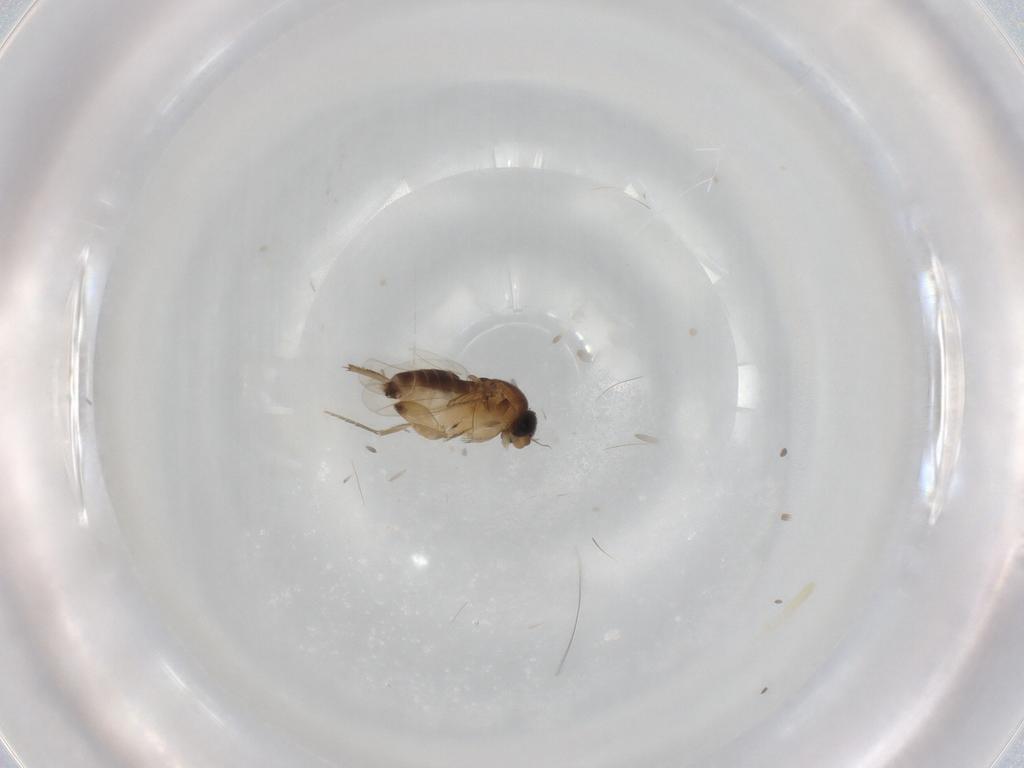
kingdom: Animalia
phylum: Arthropoda
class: Insecta
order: Diptera
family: Phoridae
